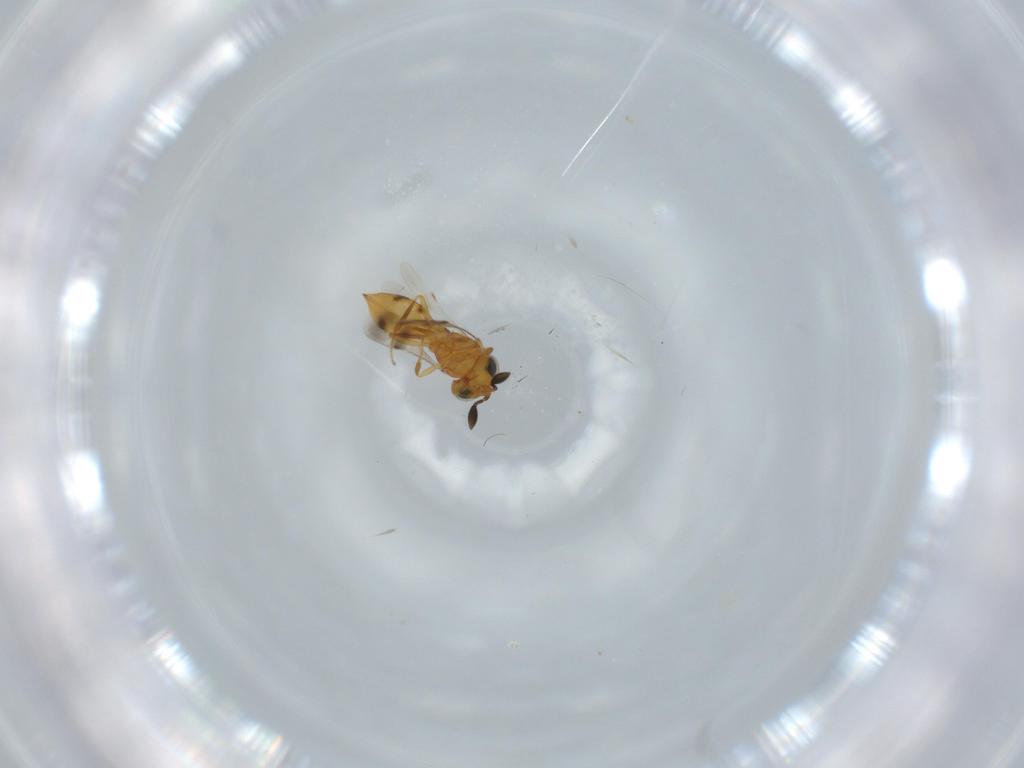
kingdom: Animalia
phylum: Arthropoda
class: Insecta
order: Hymenoptera
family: Scelionidae
